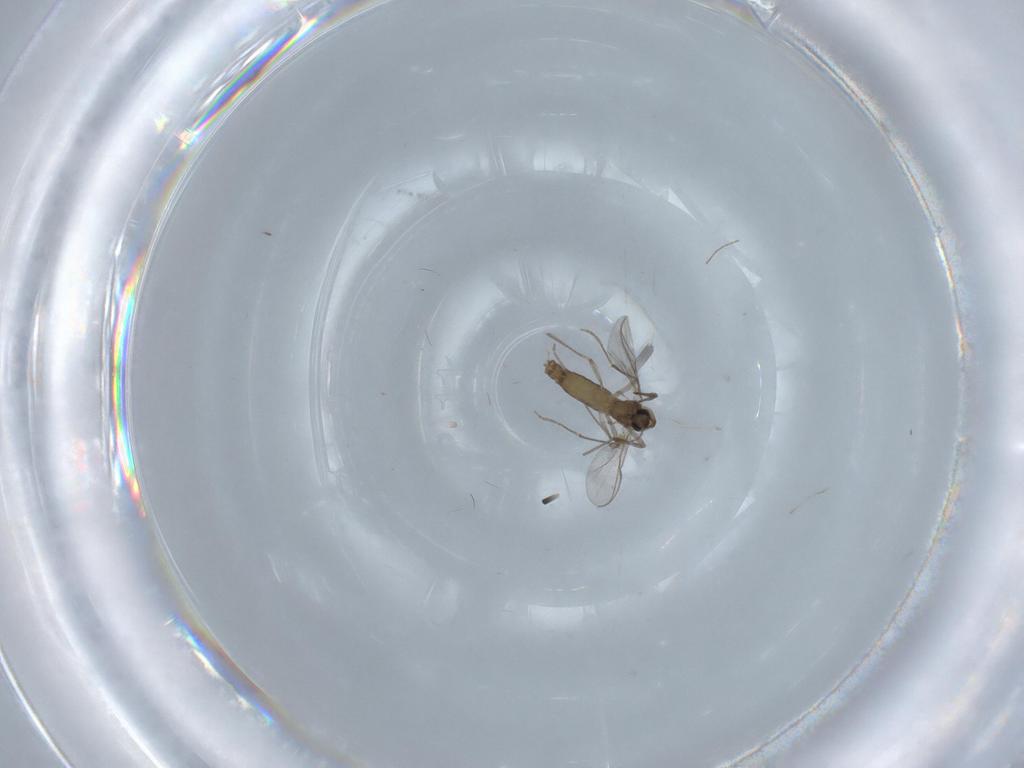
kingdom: Animalia
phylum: Arthropoda
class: Insecta
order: Diptera
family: Chironomidae
